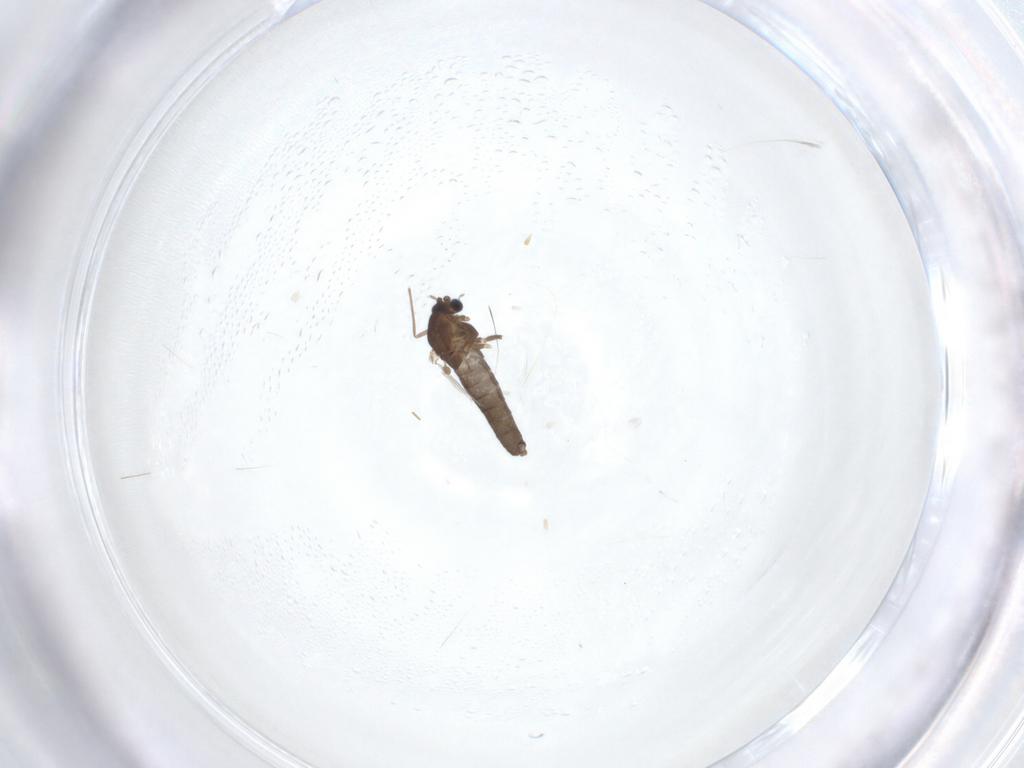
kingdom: Animalia
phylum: Arthropoda
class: Insecta
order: Diptera
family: Chironomidae
